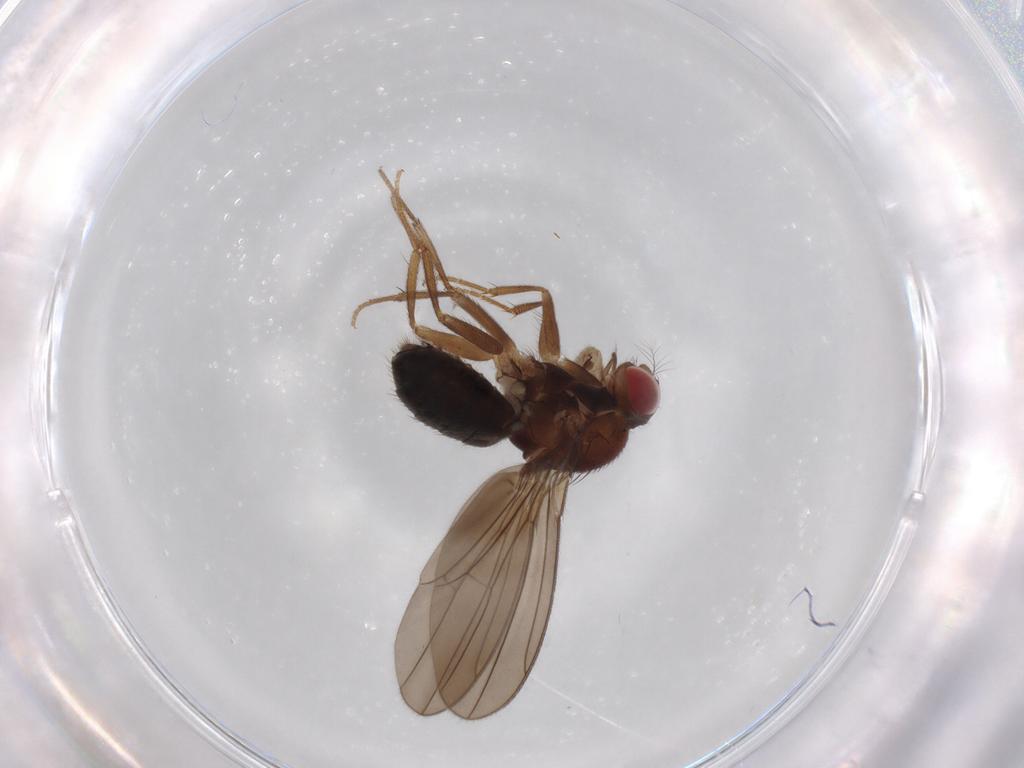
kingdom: Animalia
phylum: Arthropoda
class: Insecta
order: Diptera
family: Drosophilidae
